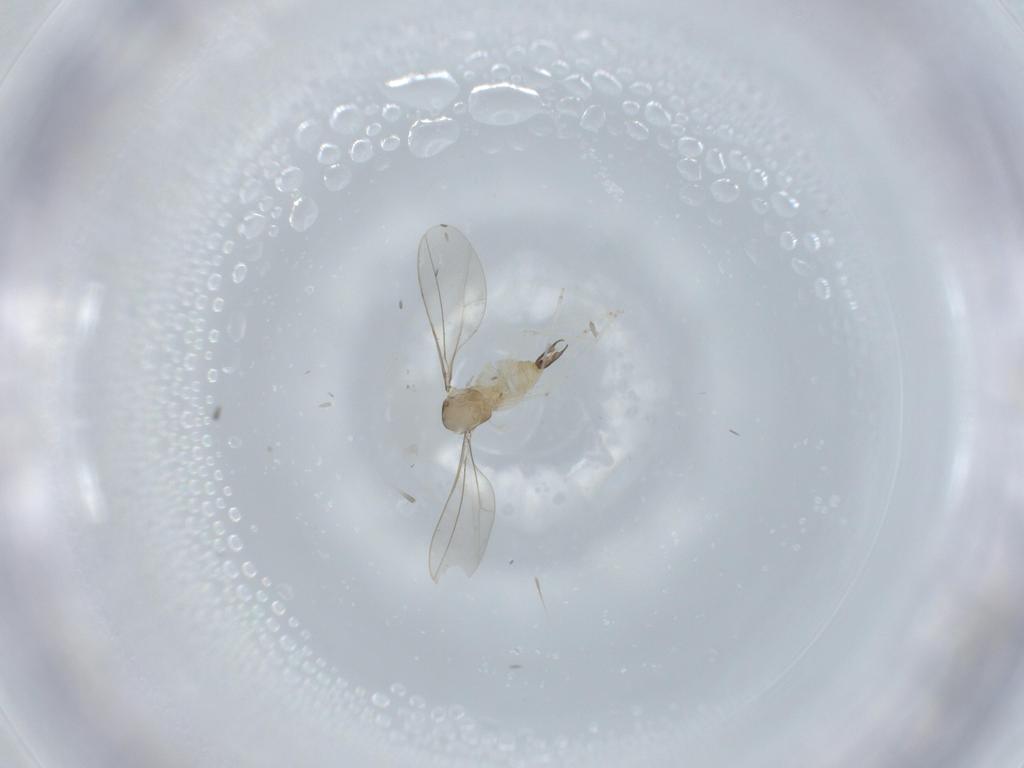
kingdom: Animalia
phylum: Arthropoda
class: Insecta
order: Diptera
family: Cecidomyiidae
